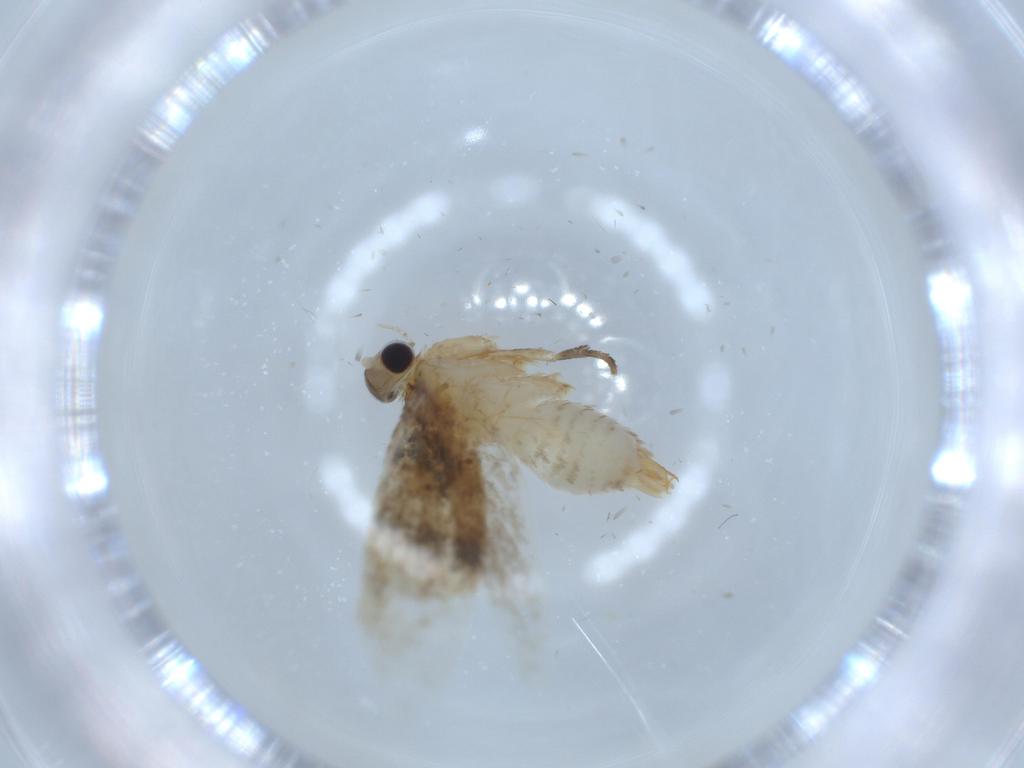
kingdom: Animalia
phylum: Arthropoda
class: Insecta
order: Lepidoptera
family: Tineidae
